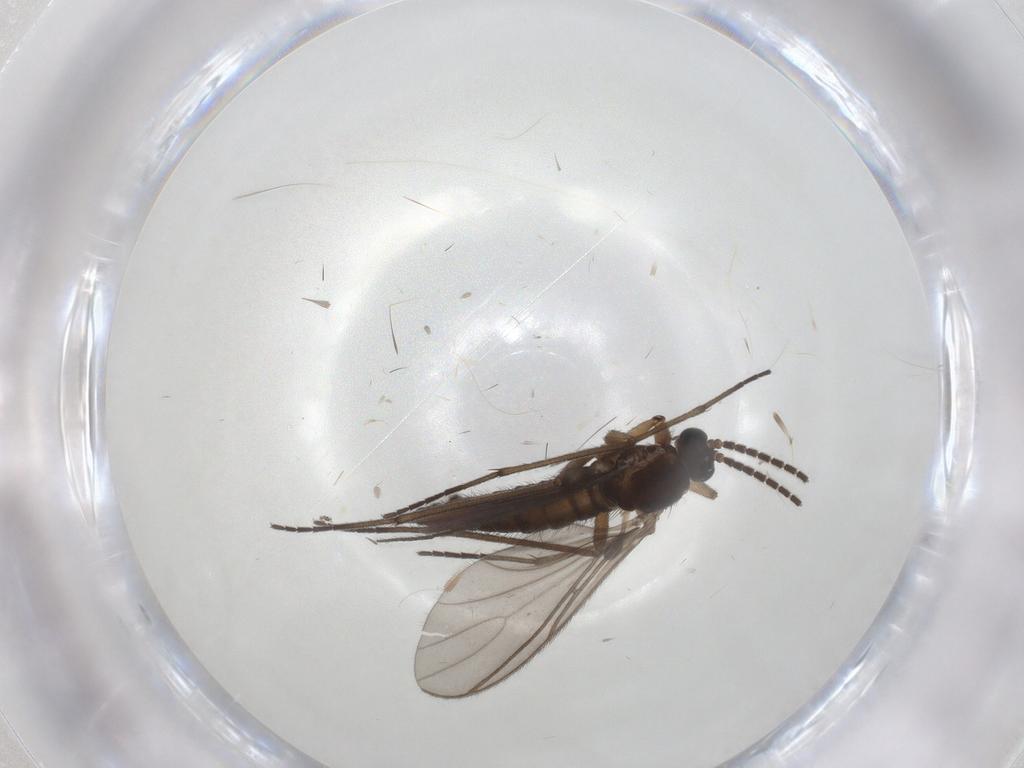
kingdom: Animalia
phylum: Arthropoda
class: Insecta
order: Diptera
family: Sciaridae
